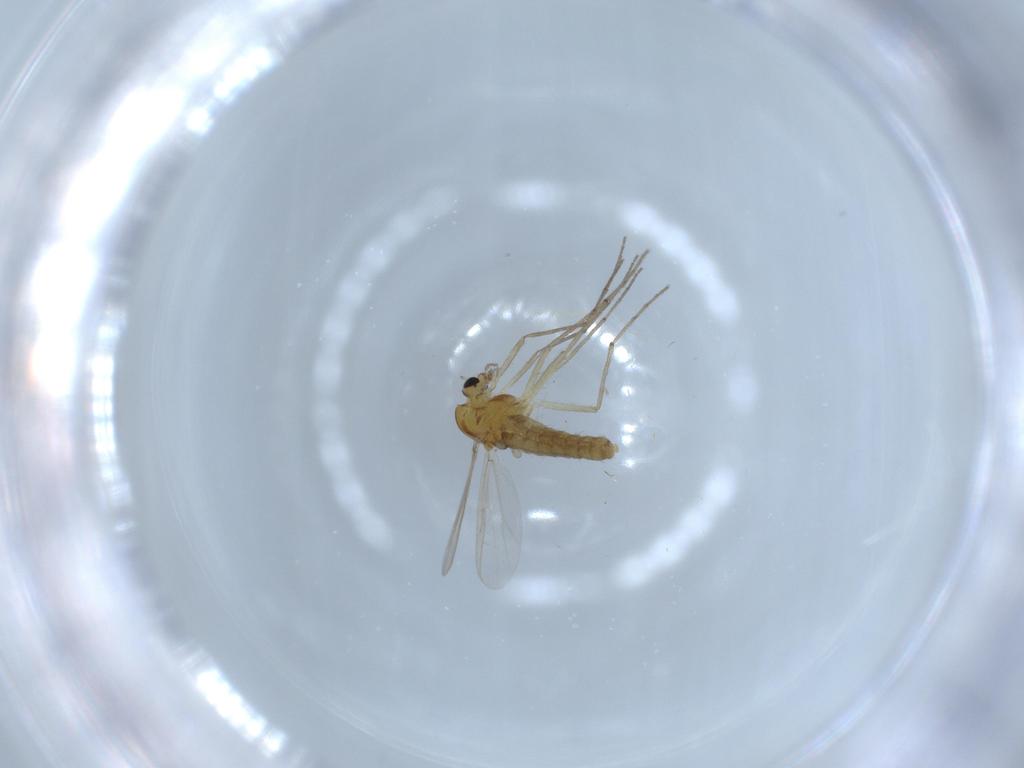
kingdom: Animalia
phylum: Arthropoda
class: Insecta
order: Diptera
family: Chironomidae
